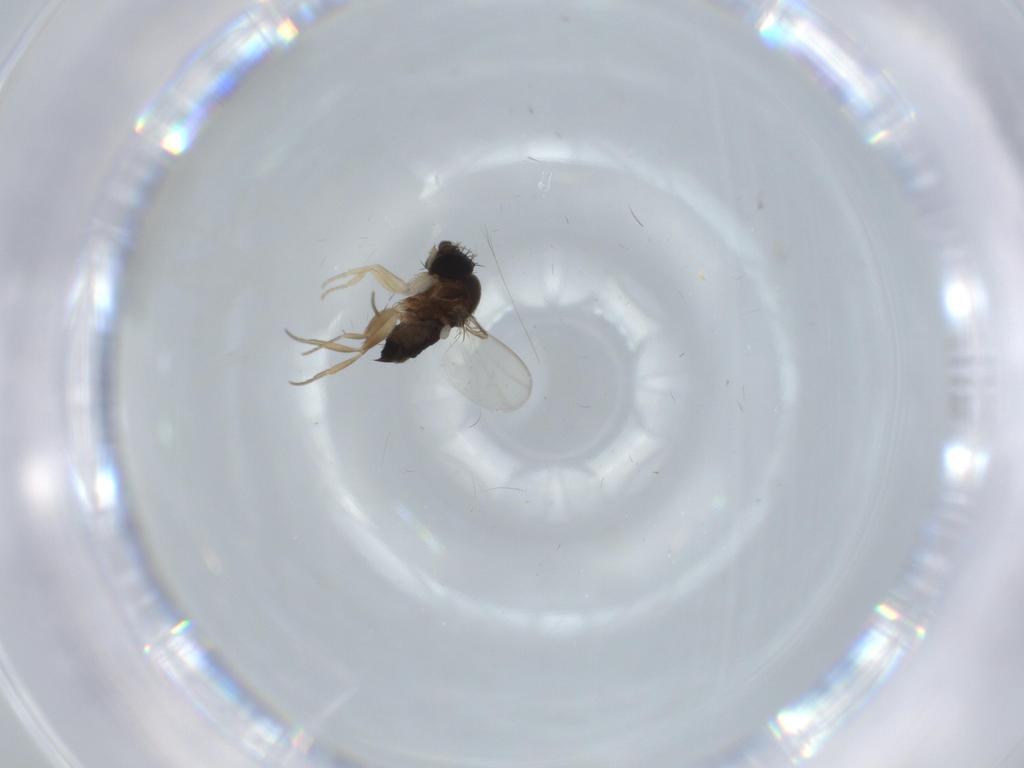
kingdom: Animalia
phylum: Arthropoda
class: Insecta
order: Diptera
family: Phoridae
